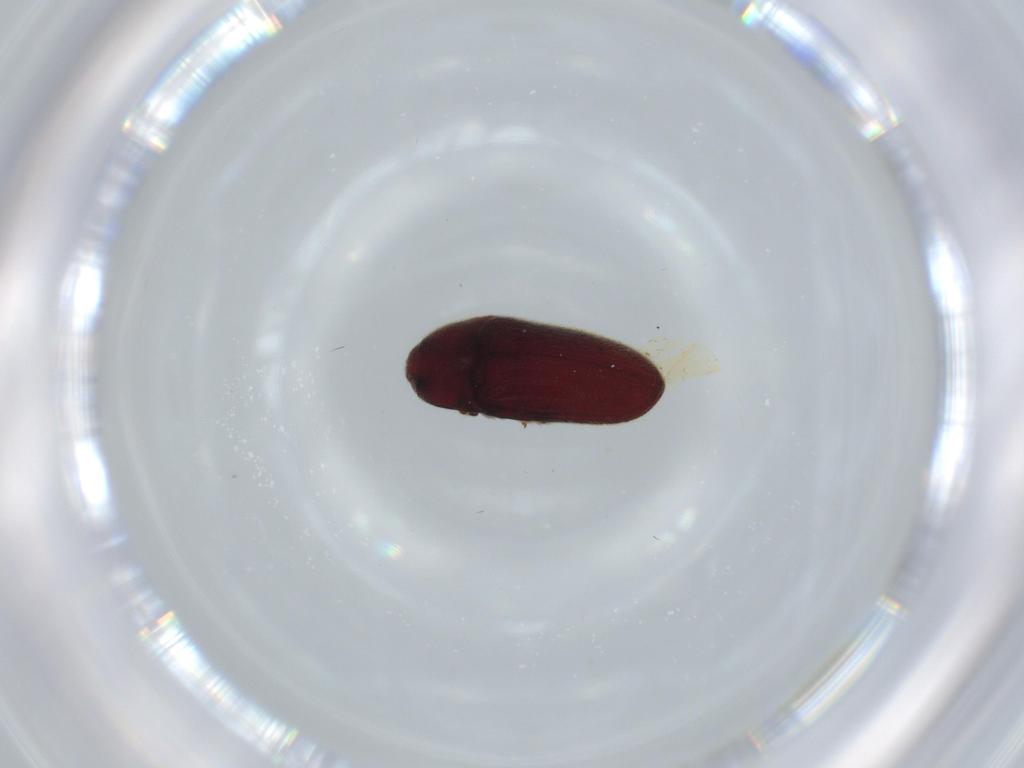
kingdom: Animalia
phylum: Arthropoda
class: Insecta
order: Coleoptera
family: Throscidae
